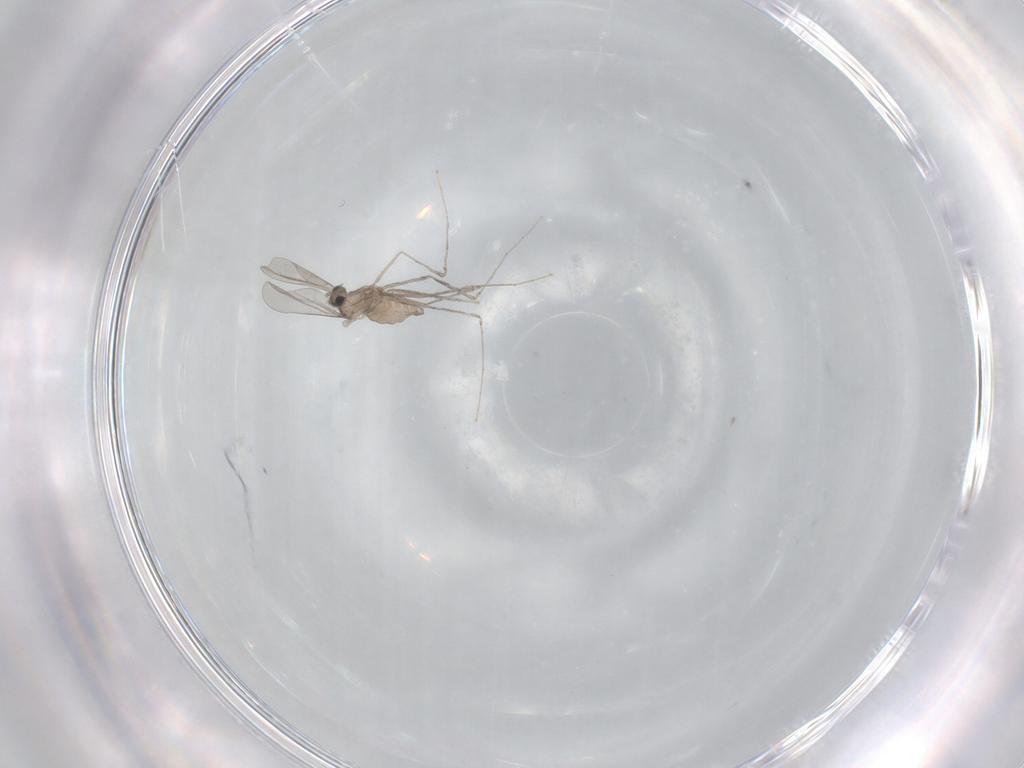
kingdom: Animalia
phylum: Arthropoda
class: Insecta
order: Diptera
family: Cecidomyiidae
